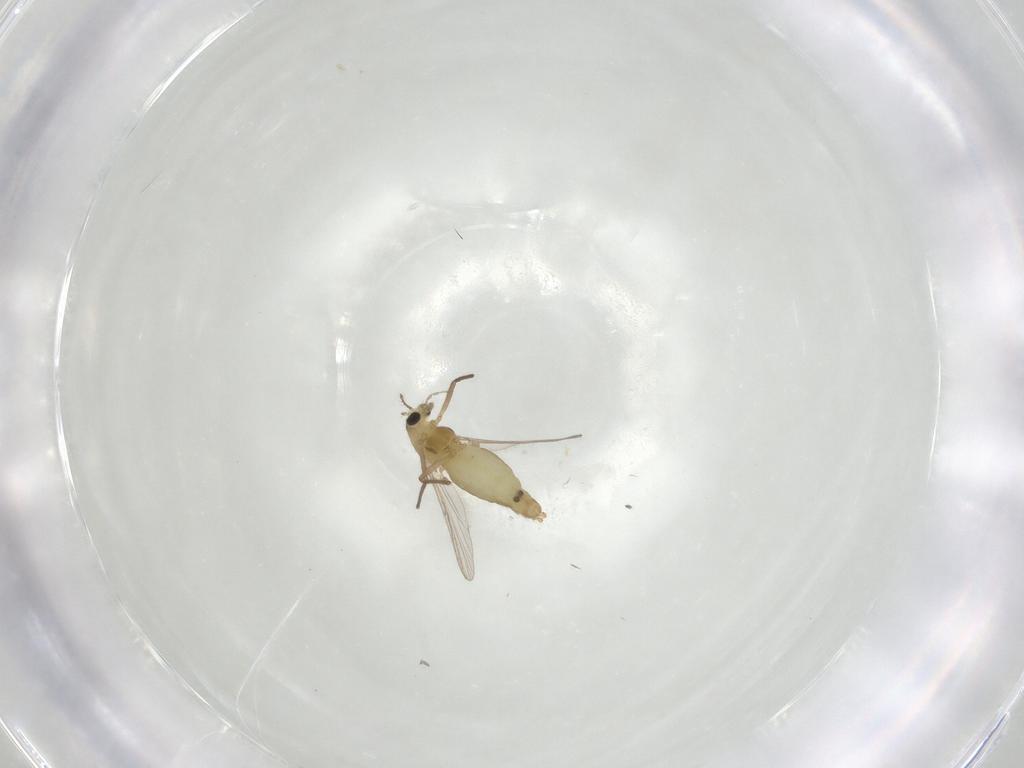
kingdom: Animalia
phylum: Arthropoda
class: Insecta
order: Diptera
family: Chironomidae
